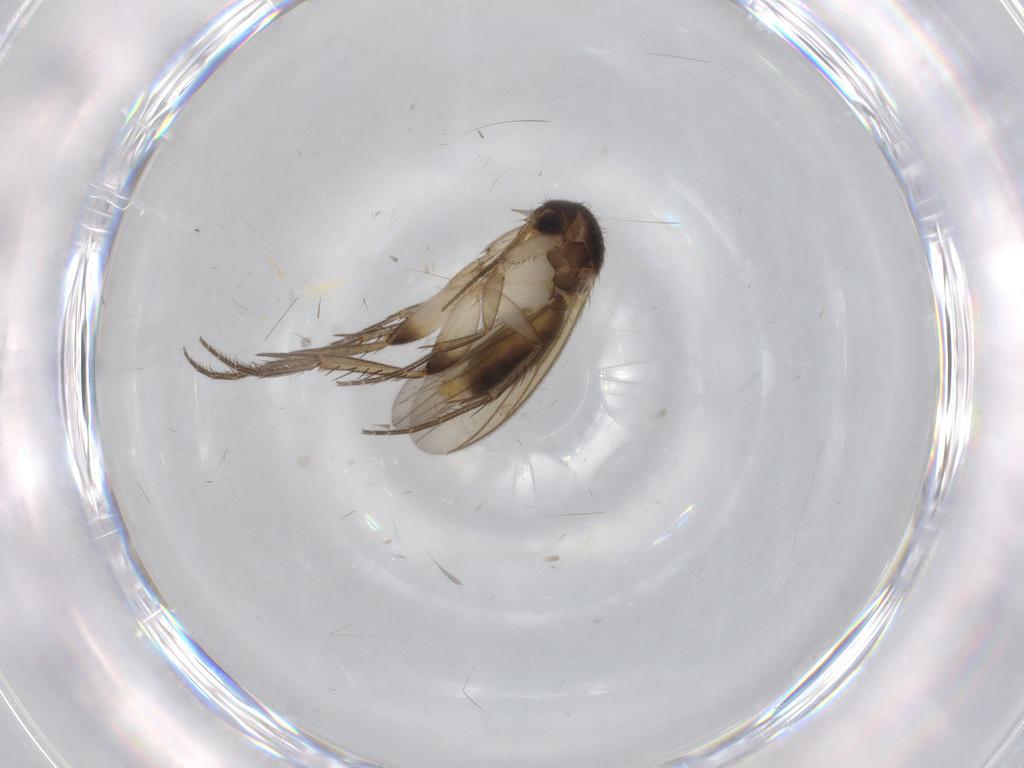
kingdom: Animalia
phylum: Arthropoda
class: Insecta
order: Diptera
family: Mycetophilidae
